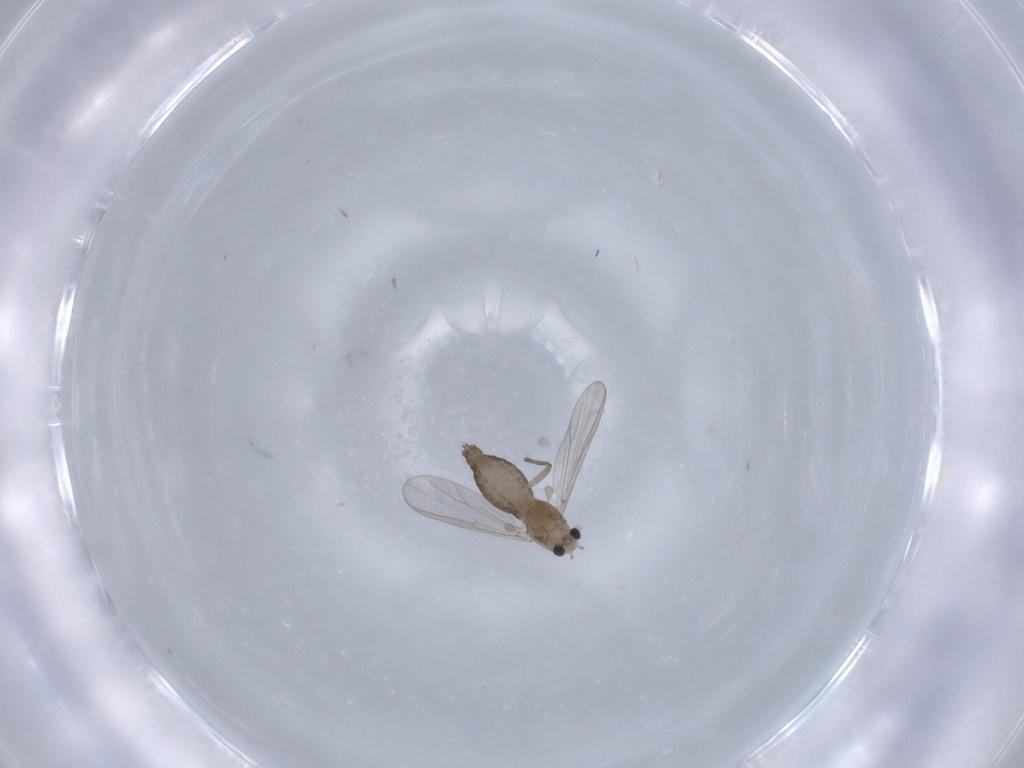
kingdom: Animalia
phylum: Arthropoda
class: Insecta
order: Diptera
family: Chironomidae
